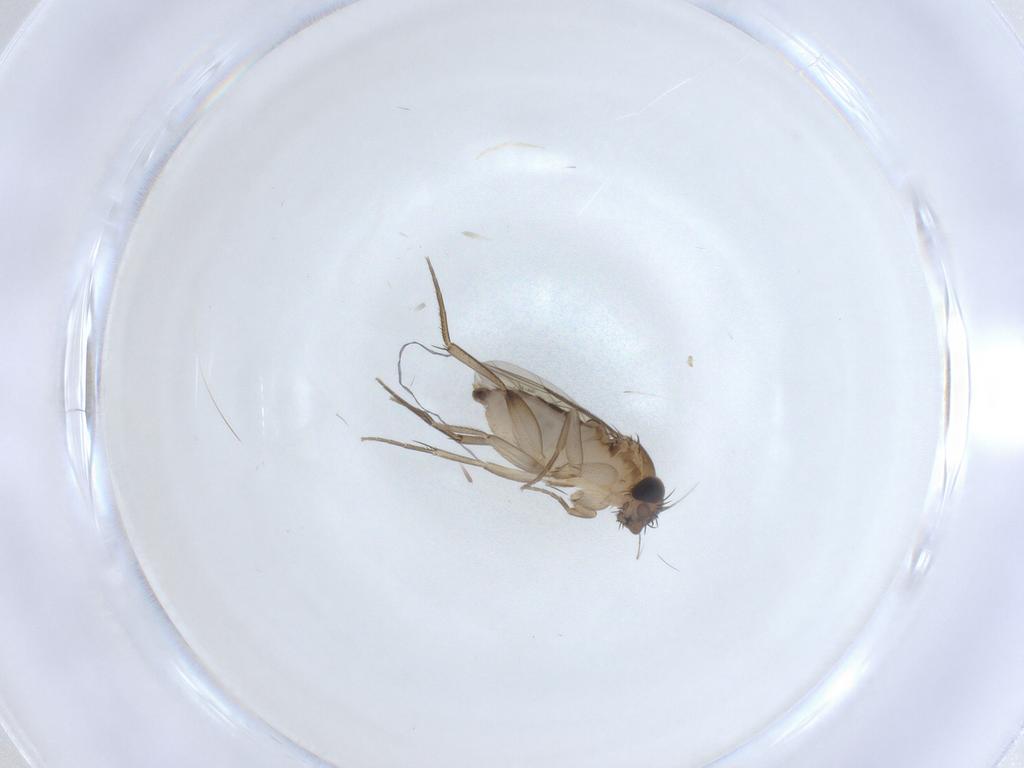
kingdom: Animalia
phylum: Arthropoda
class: Insecta
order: Diptera
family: Phoridae
